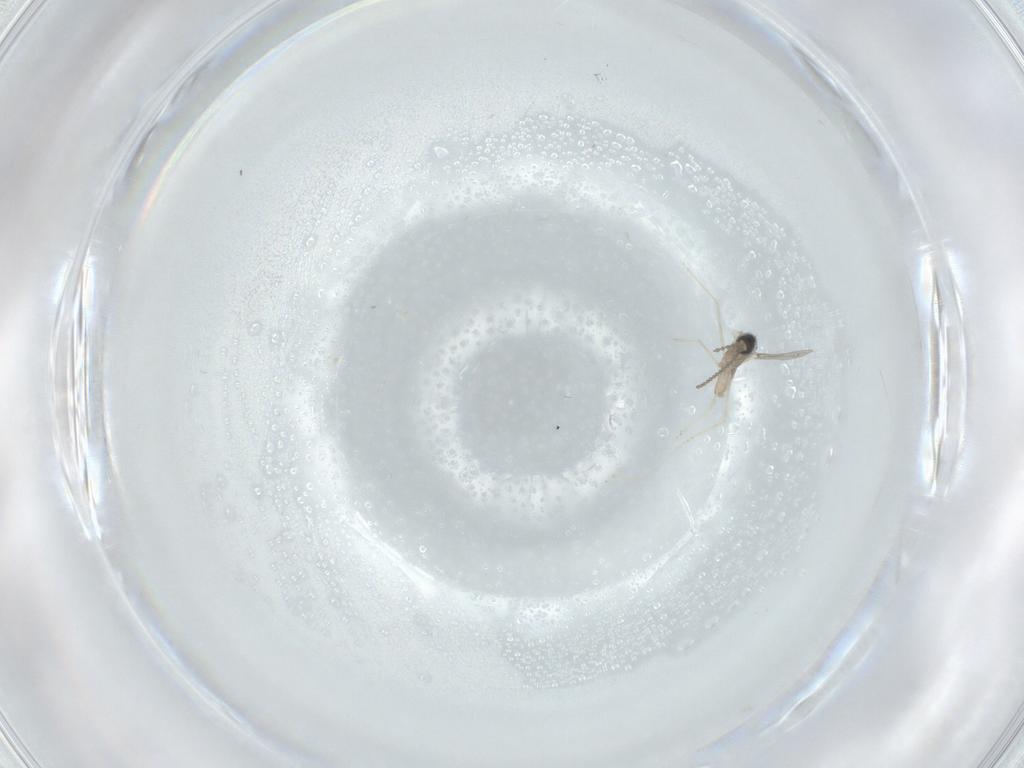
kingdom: Animalia
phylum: Arthropoda
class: Insecta
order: Diptera
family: Cecidomyiidae
